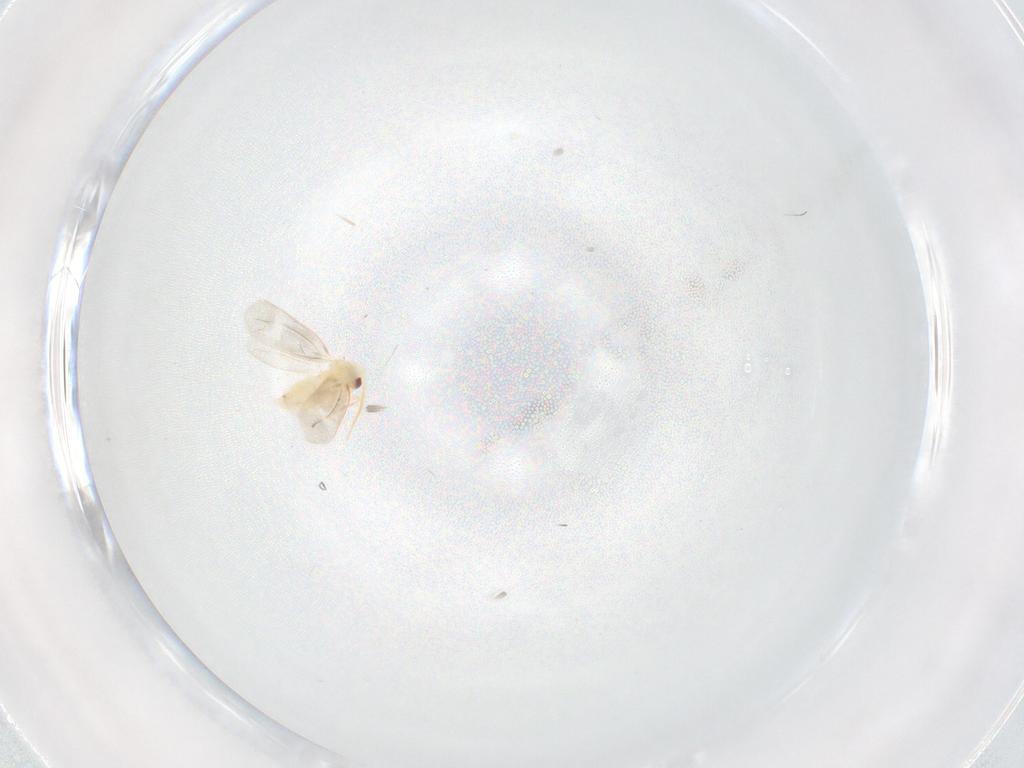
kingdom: Animalia
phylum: Arthropoda
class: Insecta
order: Hemiptera
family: Aleyrodidae
